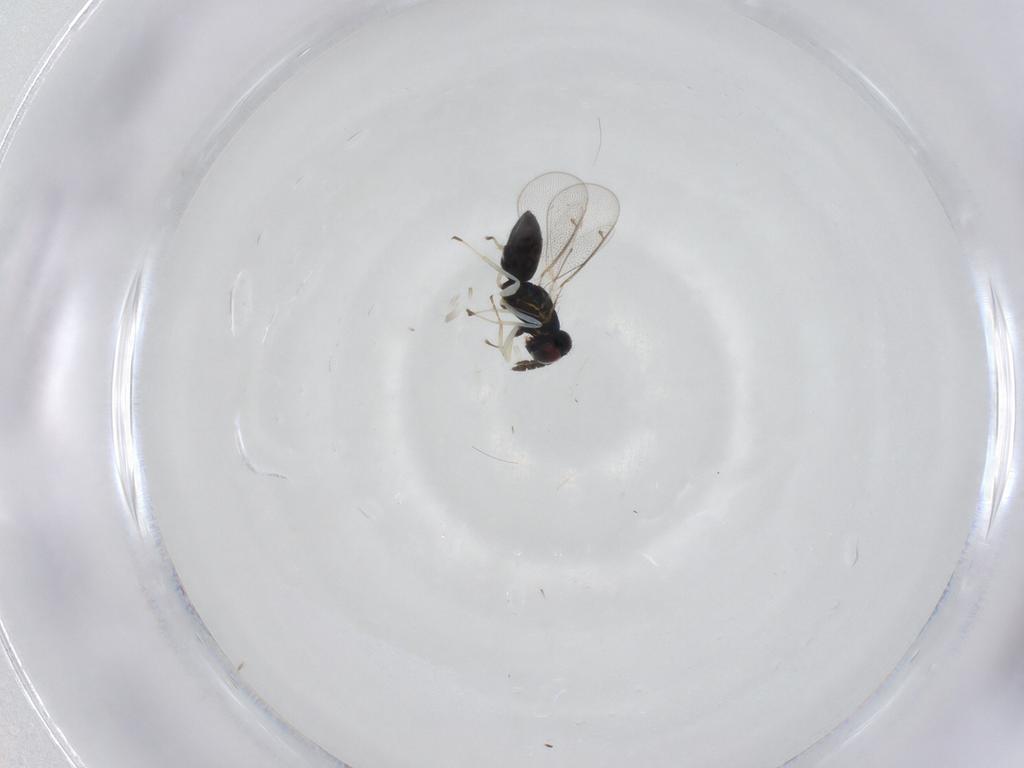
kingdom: Animalia
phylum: Arthropoda
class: Insecta
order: Hymenoptera
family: Eulophidae
